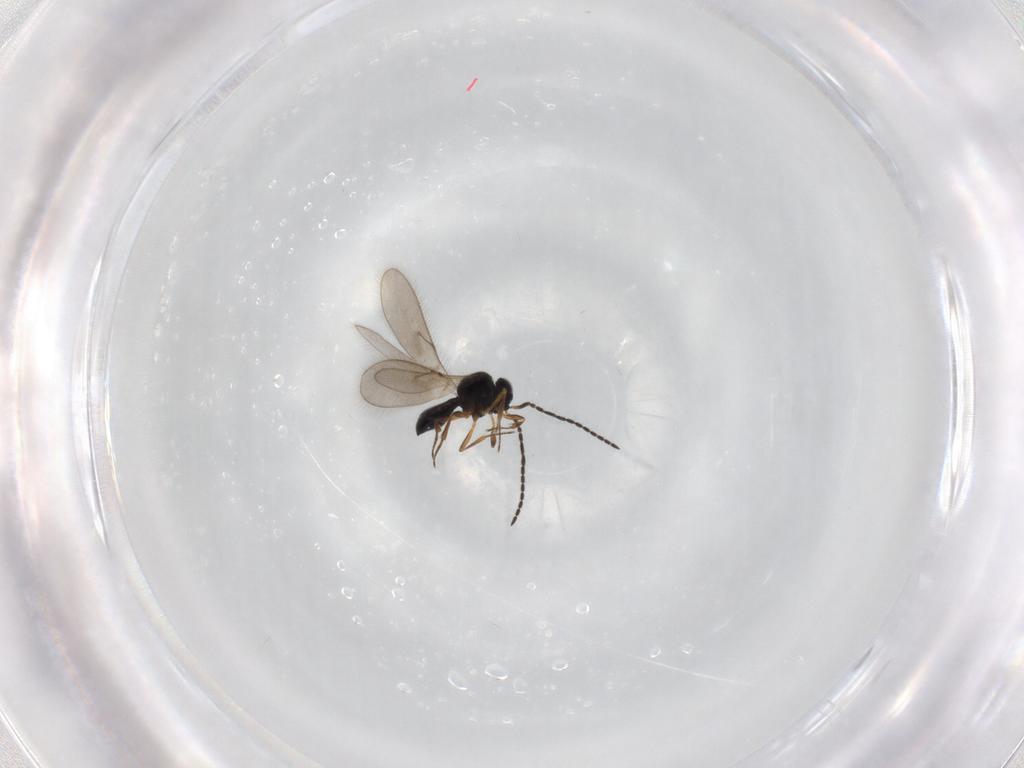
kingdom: Animalia
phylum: Arthropoda
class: Insecta
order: Hymenoptera
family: Scelionidae
